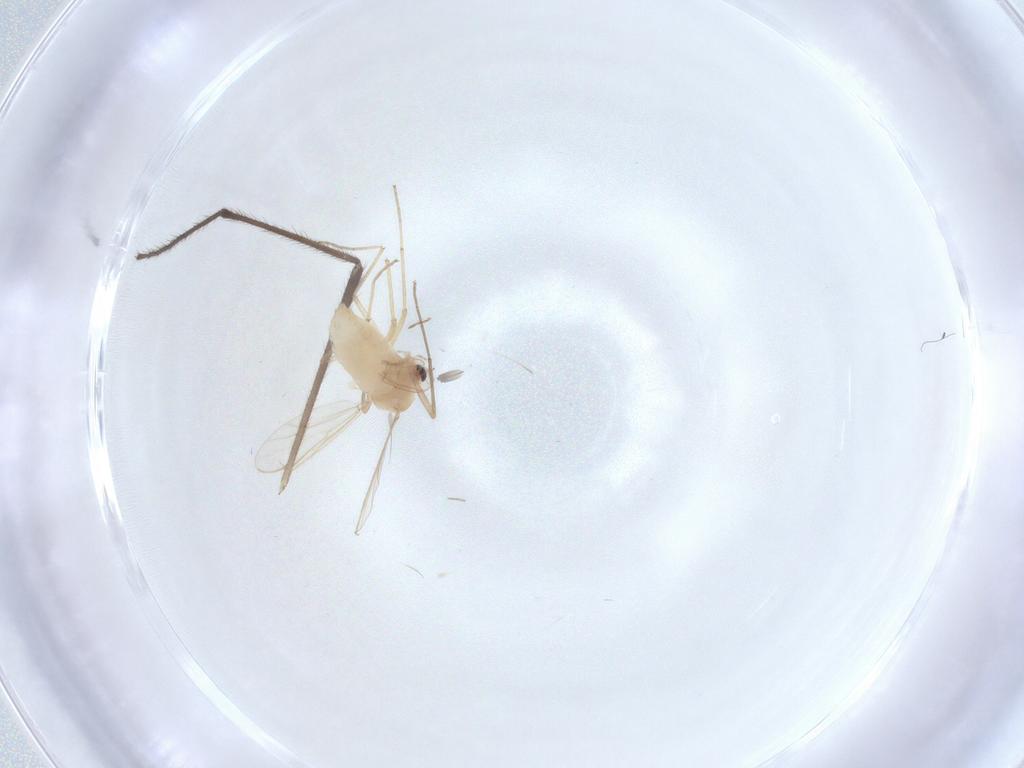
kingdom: Animalia
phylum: Arthropoda
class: Insecta
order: Diptera
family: Chironomidae
